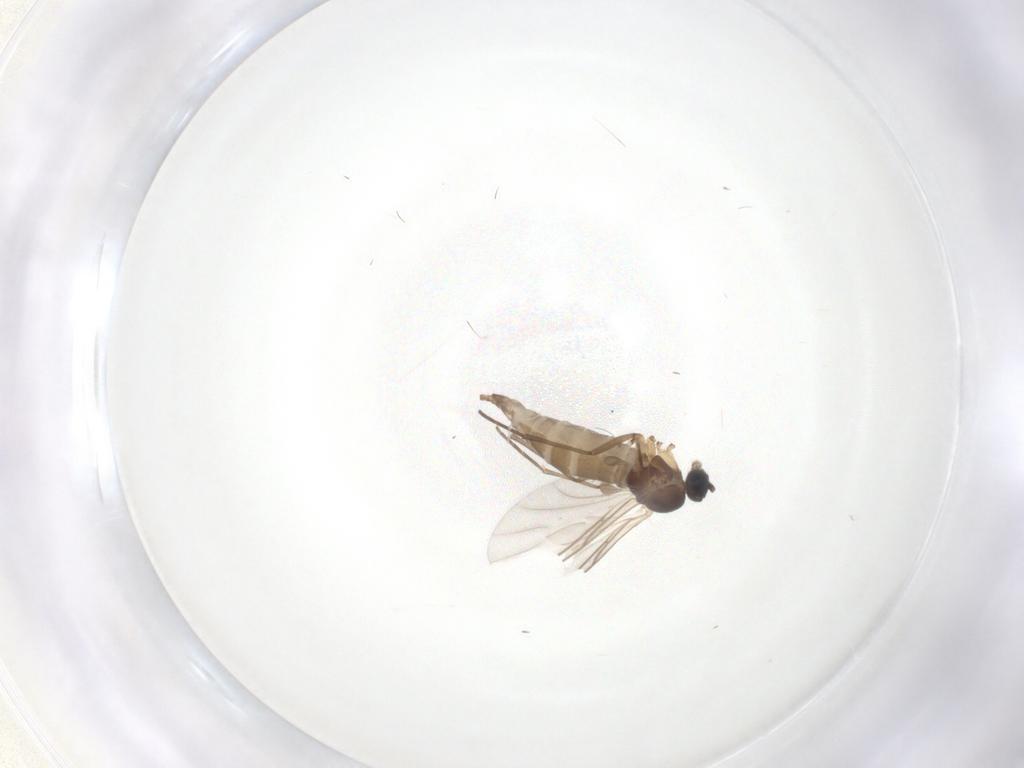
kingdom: Animalia
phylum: Arthropoda
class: Insecta
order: Diptera
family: Sciaridae
